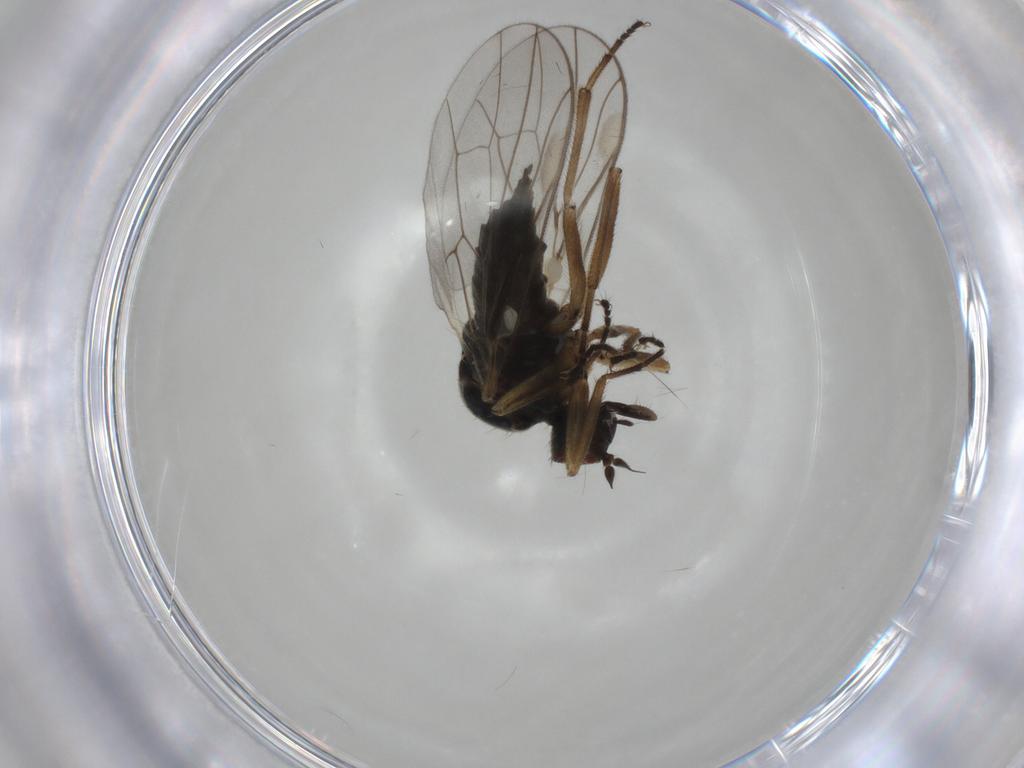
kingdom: Animalia
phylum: Arthropoda
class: Insecta
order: Diptera
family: Hybotidae
